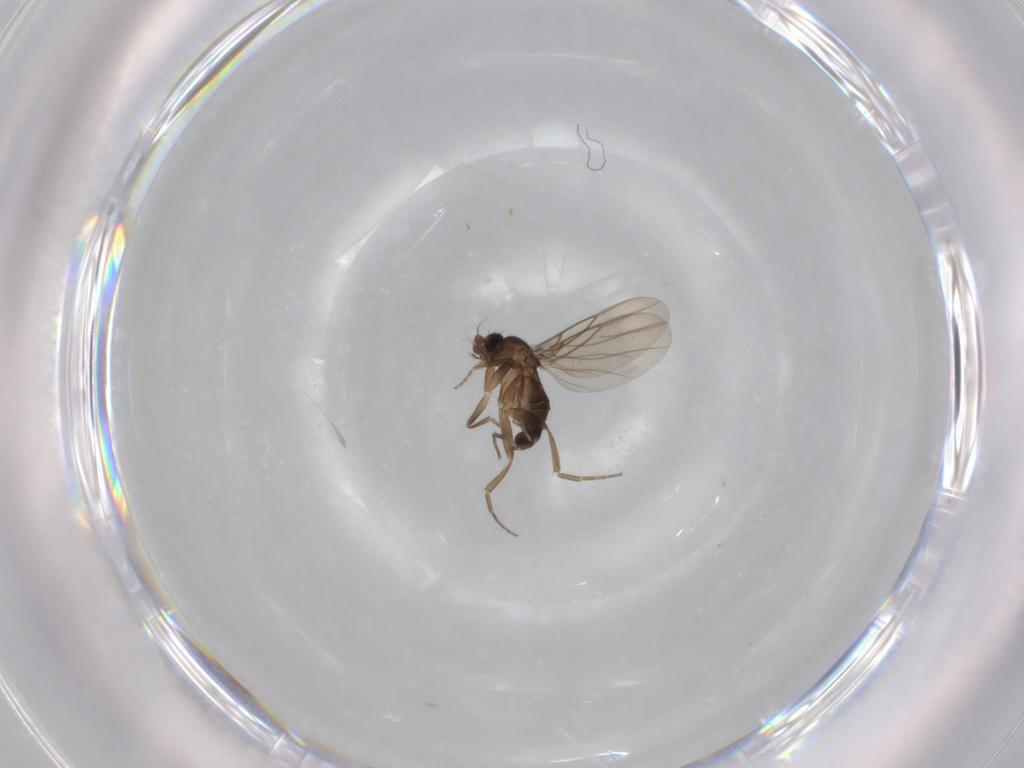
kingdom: Animalia
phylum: Arthropoda
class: Insecta
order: Diptera
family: Phoridae
